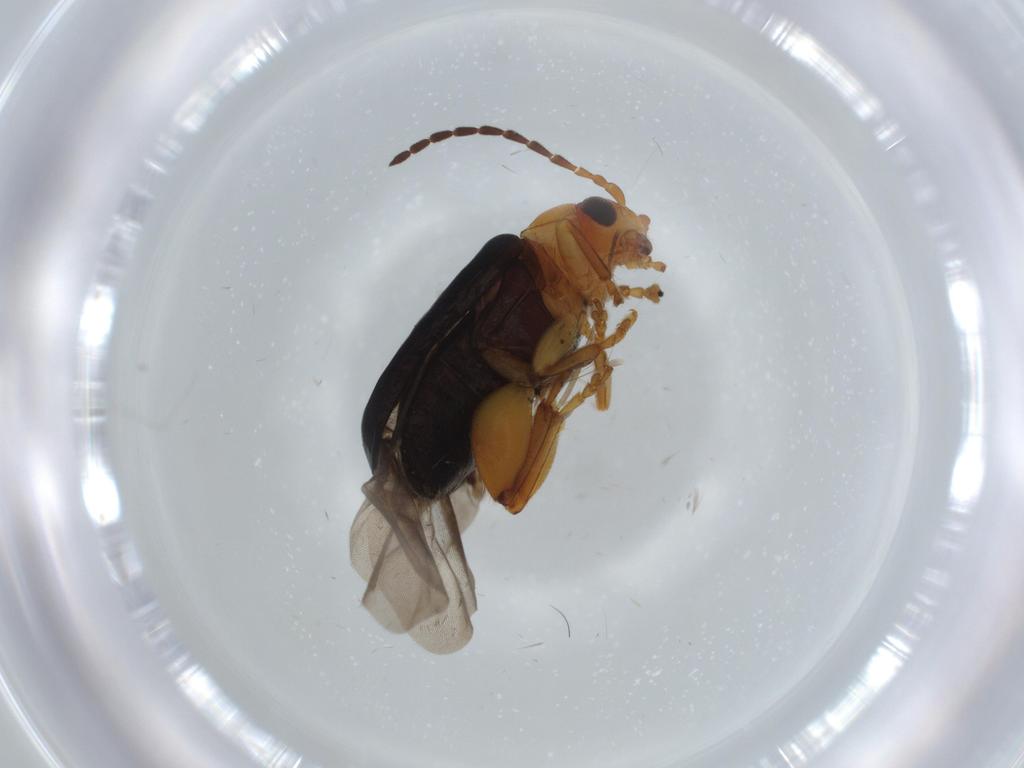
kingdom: Animalia
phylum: Arthropoda
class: Insecta
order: Coleoptera
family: Chrysomelidae
